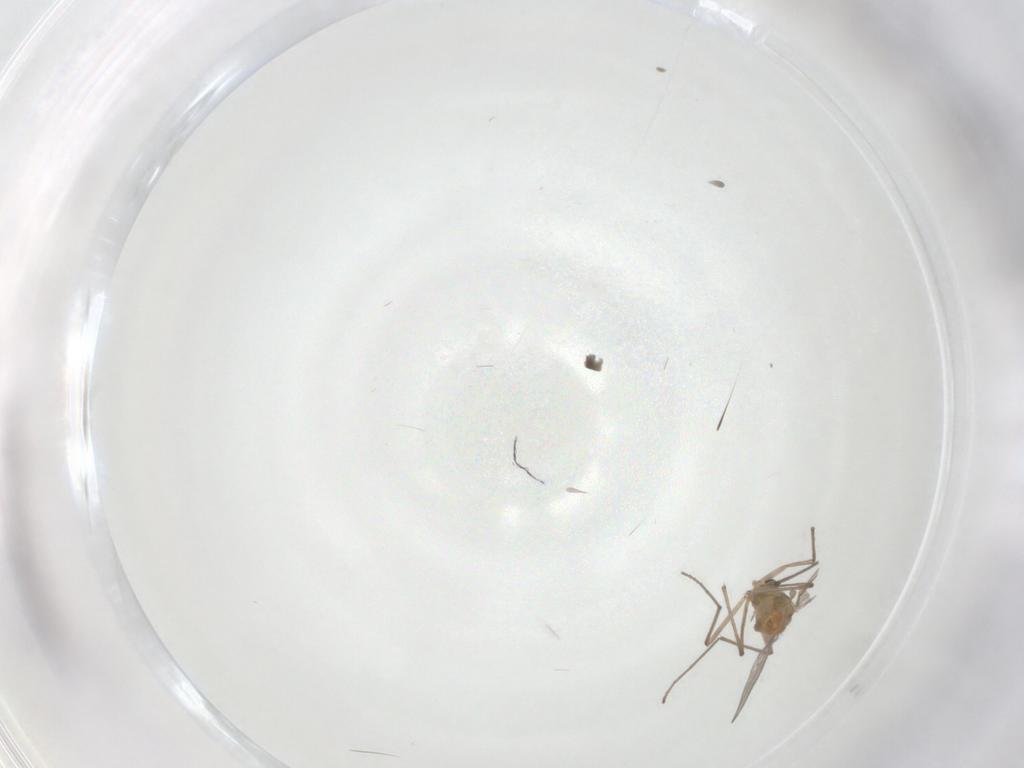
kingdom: Animalia
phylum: Arthropoda
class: Insecta
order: Diptera
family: Chironomidae
